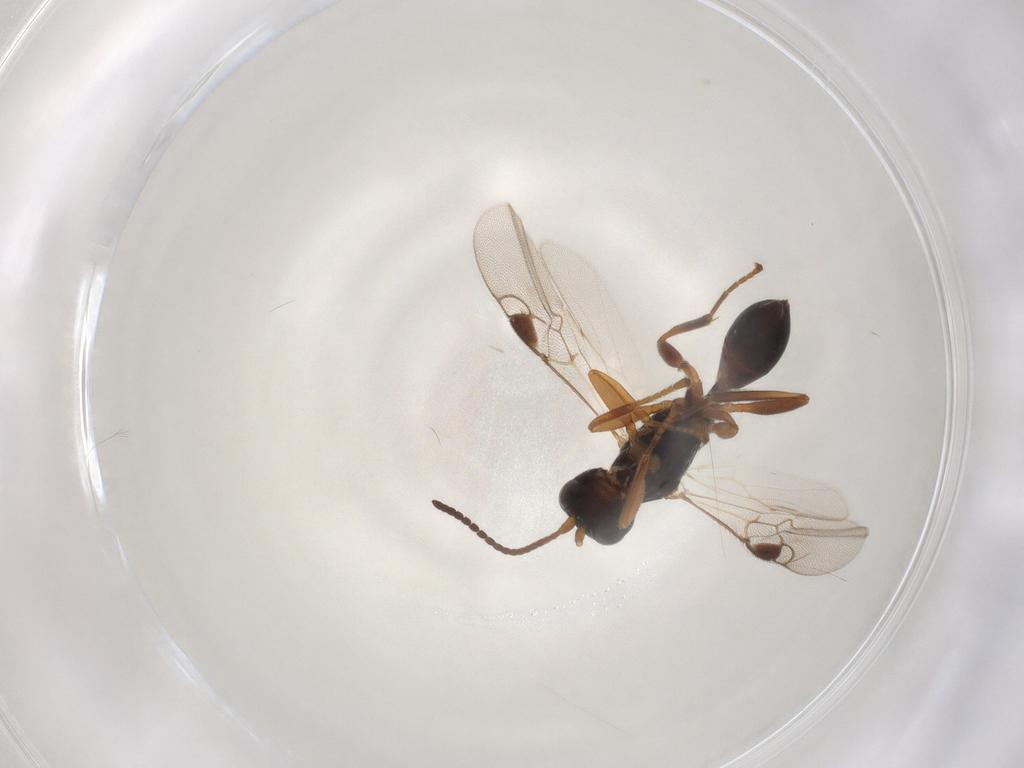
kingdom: Animalia
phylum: Arthropoda
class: Insecta
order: Hymenoptera
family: Braconidae
